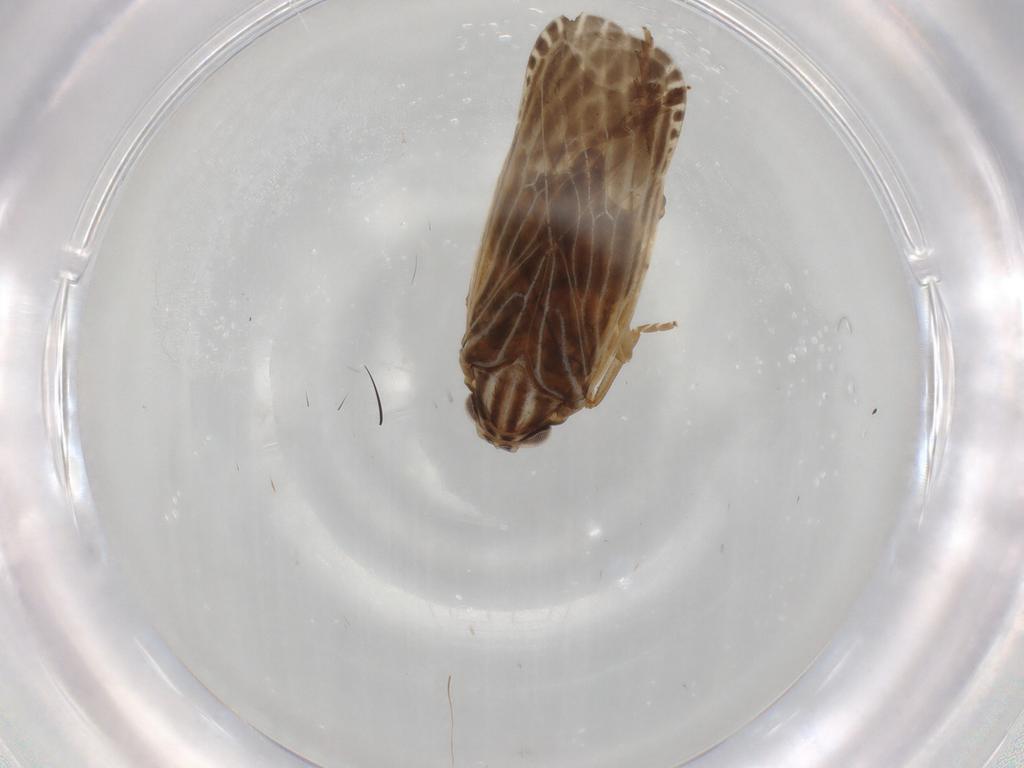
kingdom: Animalia
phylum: Arthropoda
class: Insecta
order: Hemiptera
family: Achilidae
